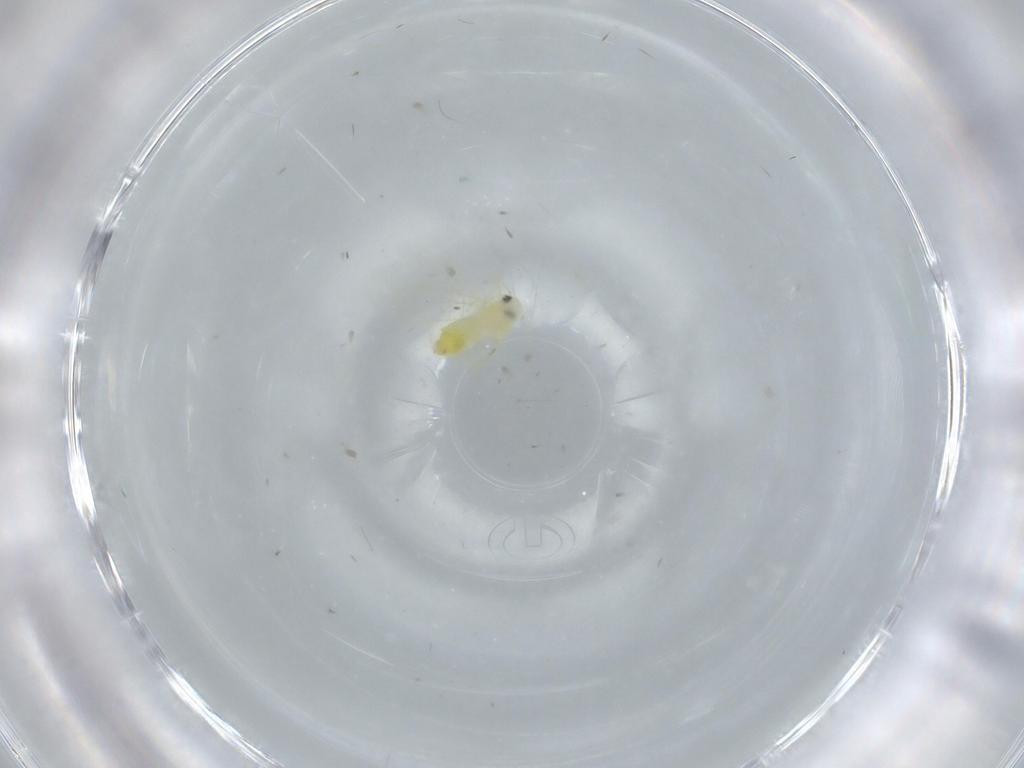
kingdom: Animalia
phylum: Arthropoda
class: Insecta
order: Hemiptera
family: Aleyrodidae
